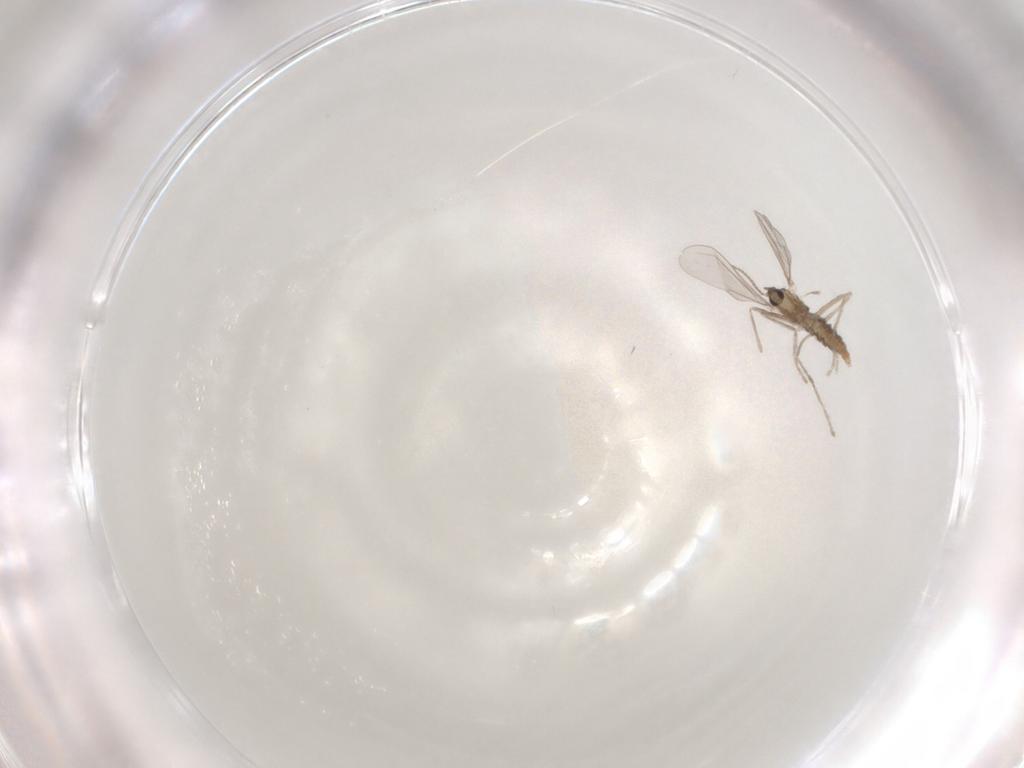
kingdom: Animalia
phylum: Arthropoda
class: Insecta
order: Diptera
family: Cecidomyiidae
